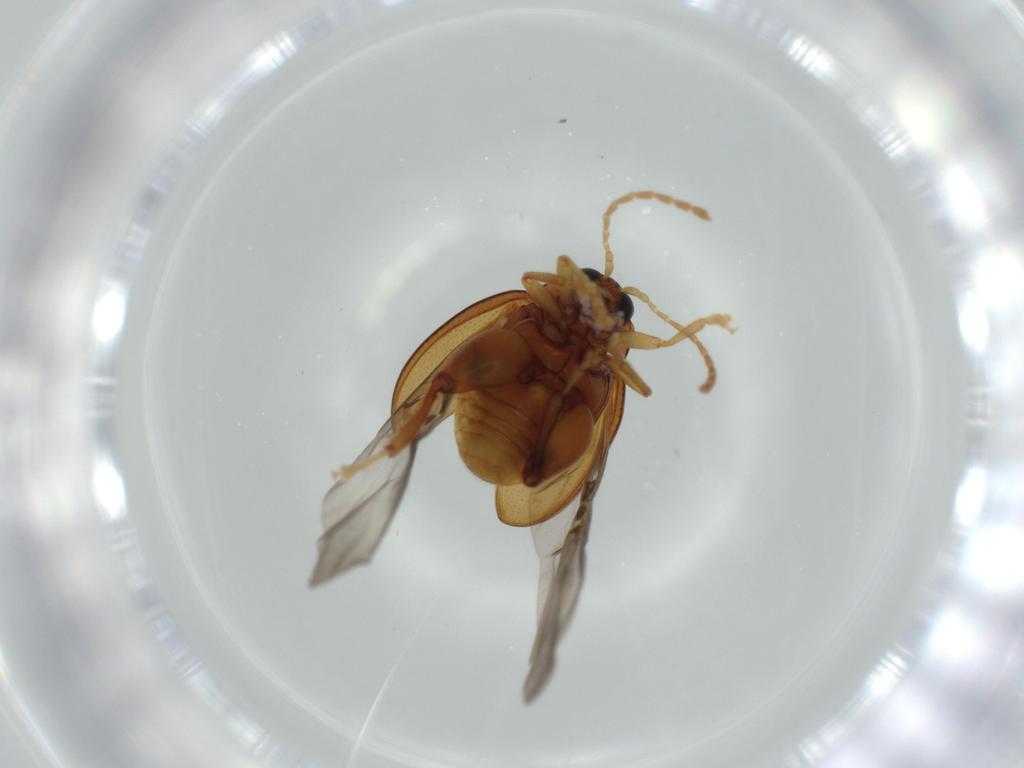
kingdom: Animalia
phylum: Arthropoda
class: Insecta
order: Coleoptera
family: Chrysomelidae
